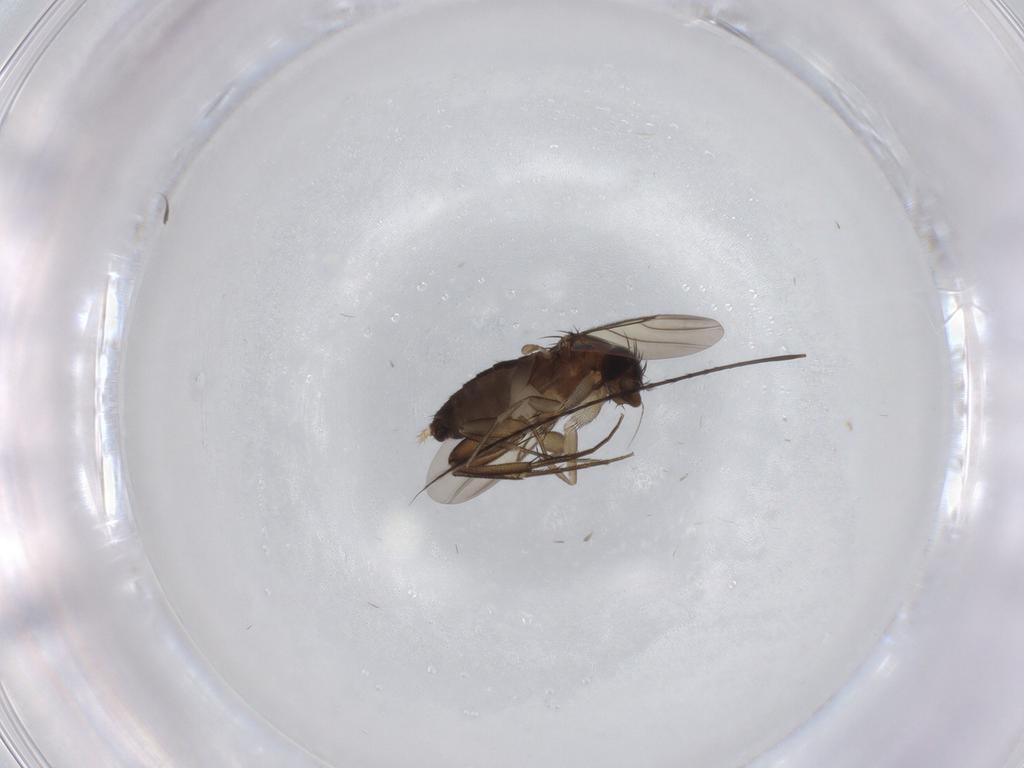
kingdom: Animalia
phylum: Arthropoda
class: Insecta
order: Diptera
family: Phoridae
